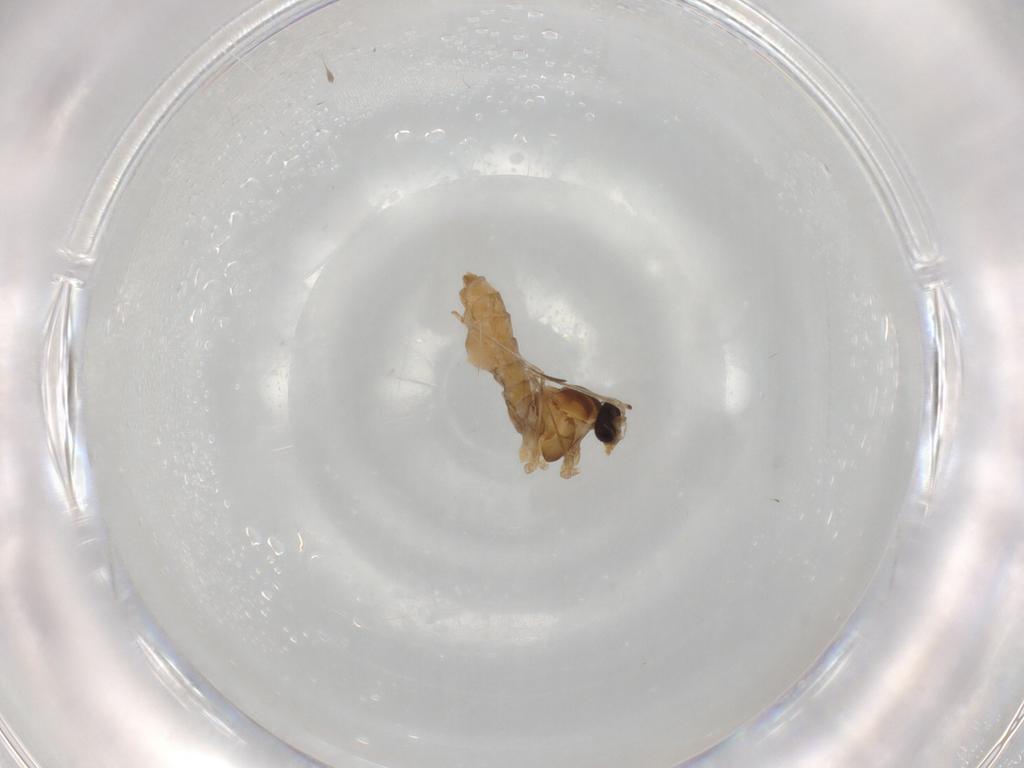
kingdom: Animalia
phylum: Arthropoda
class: Insecta
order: Diptera
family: Cecidomyiidae
